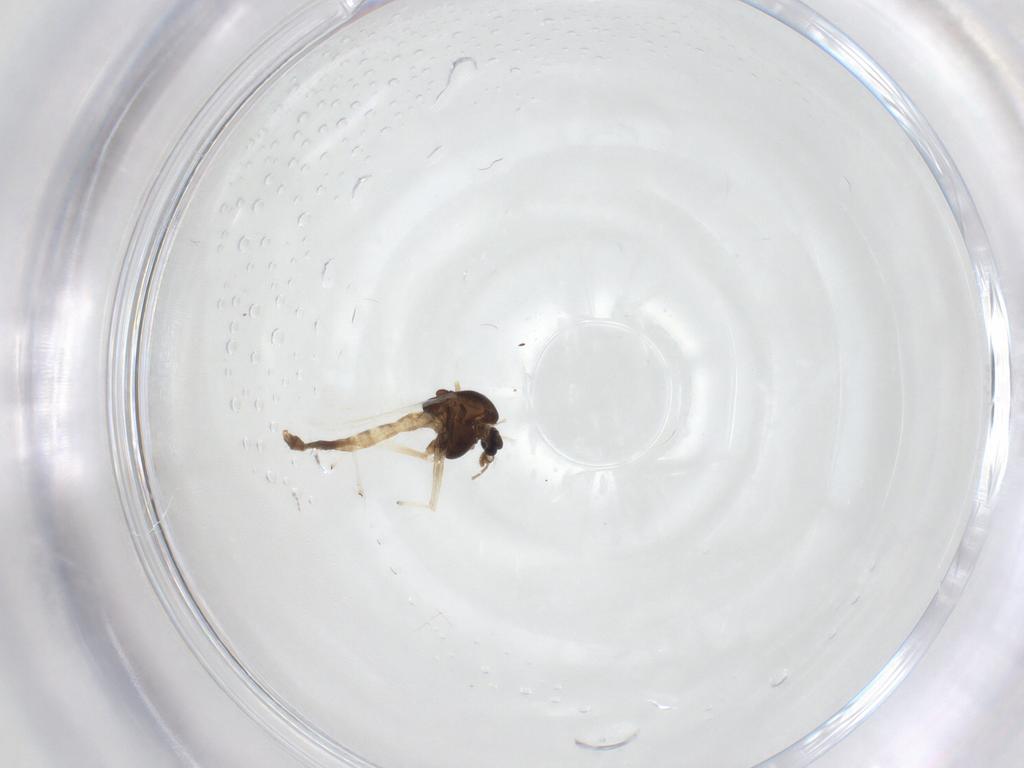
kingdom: Animalia
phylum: Arthropoda
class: Insecta
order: Diptera
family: Cecidomyiidae
